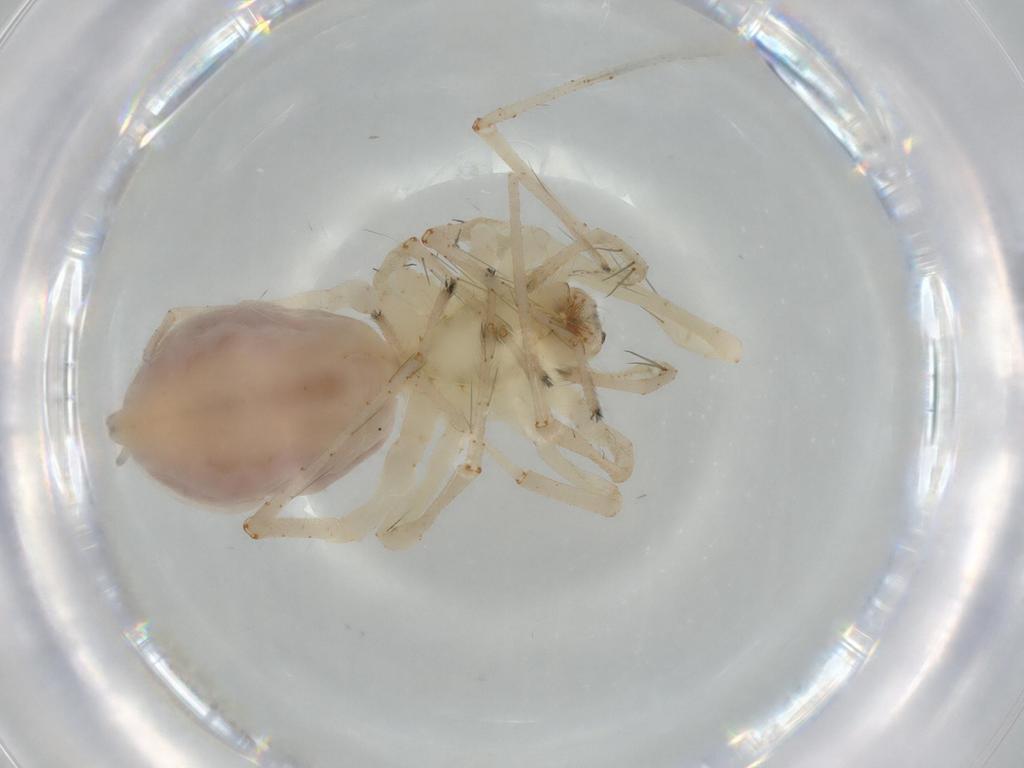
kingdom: Animalia
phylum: Arthropoda
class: Arachnida
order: Araneae
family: Anyphaenidae
